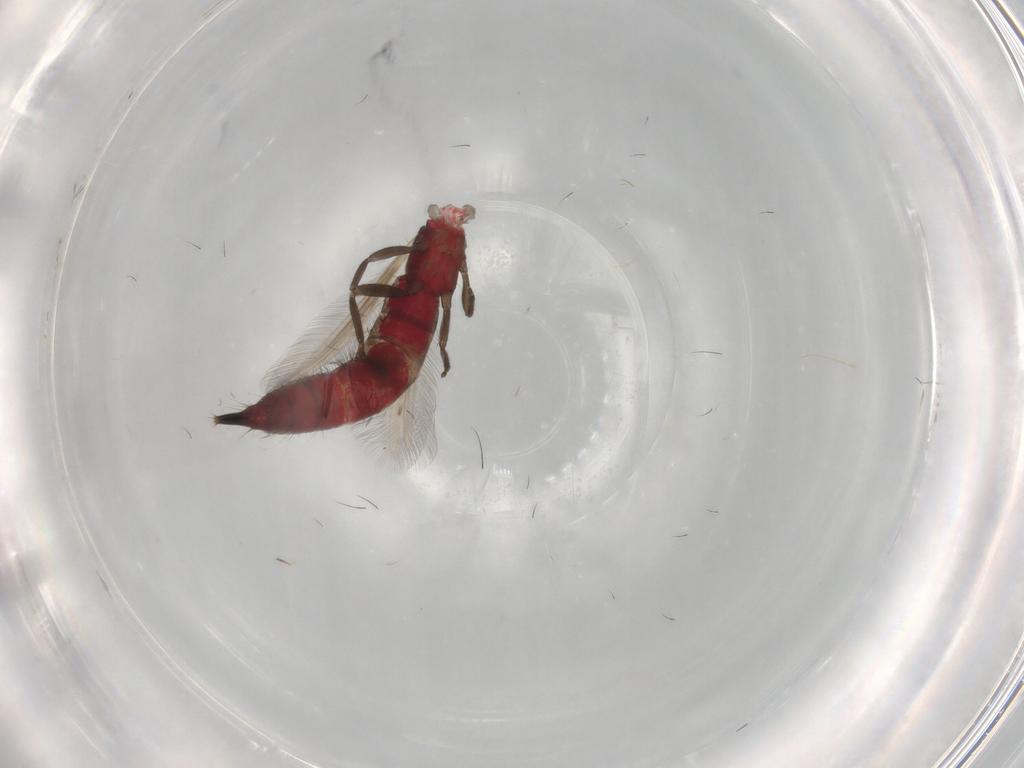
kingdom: Animalia
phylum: Arthropoda
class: Insecta
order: Thysanoptera
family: Phlaeothripidae
